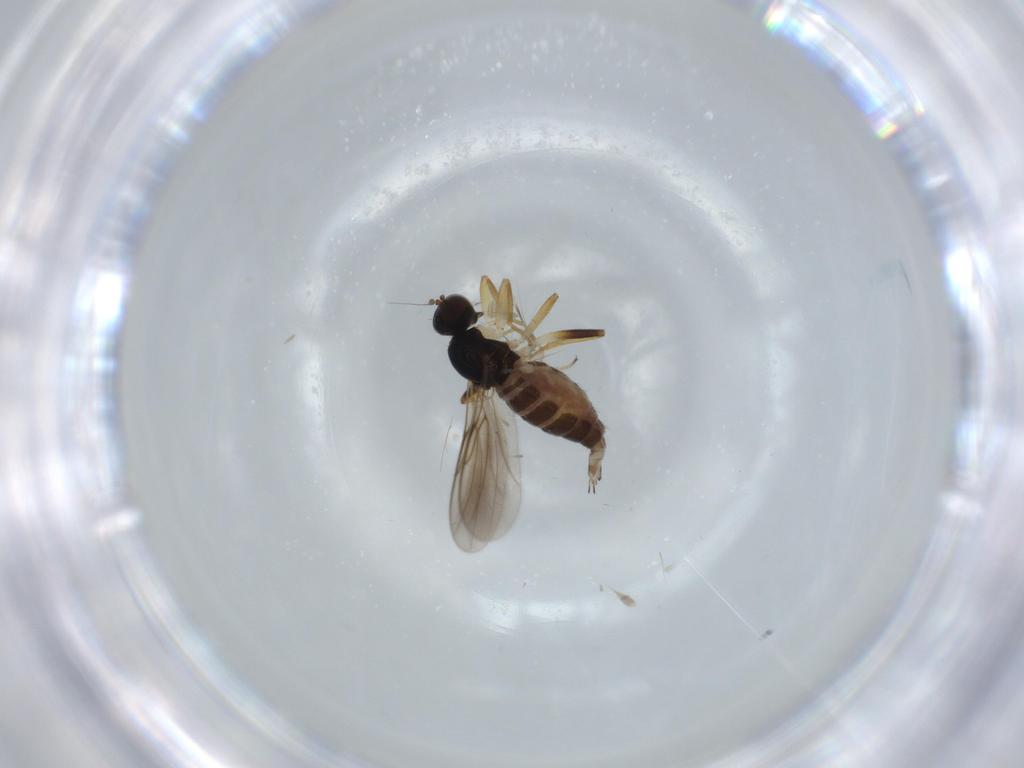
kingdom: Animalia
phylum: Arthropoda
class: Insecta
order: Diptera
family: Hybotidae
